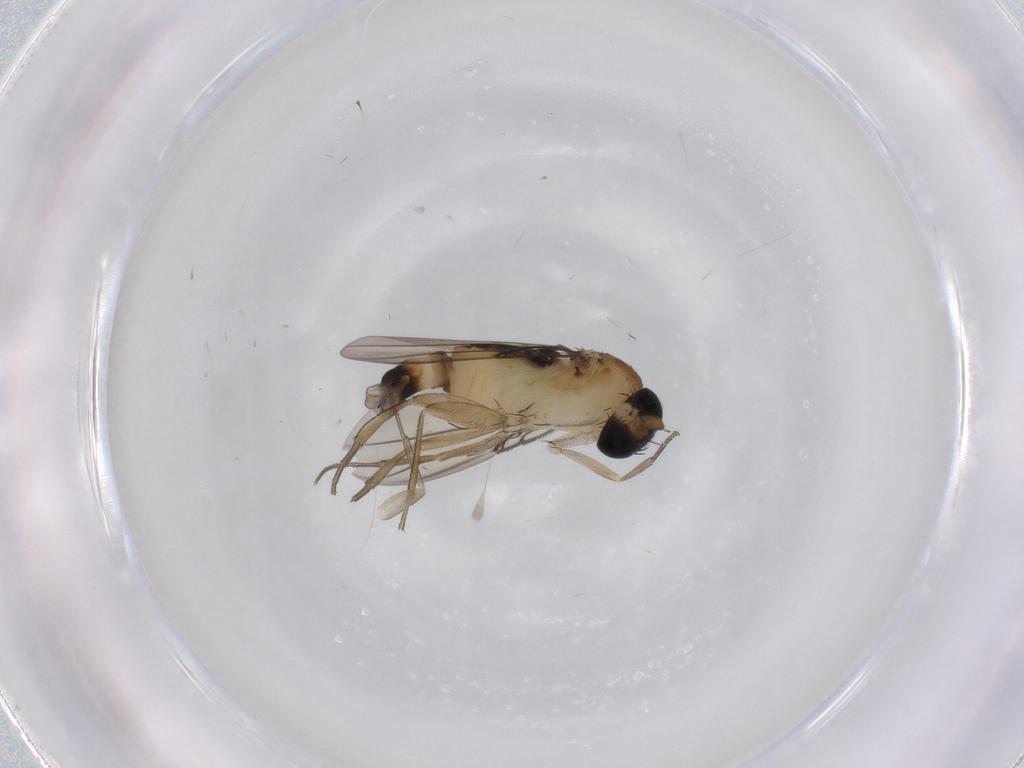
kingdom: Animalia
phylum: Arthropoda
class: Insecta
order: Diptera
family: Phoridae
